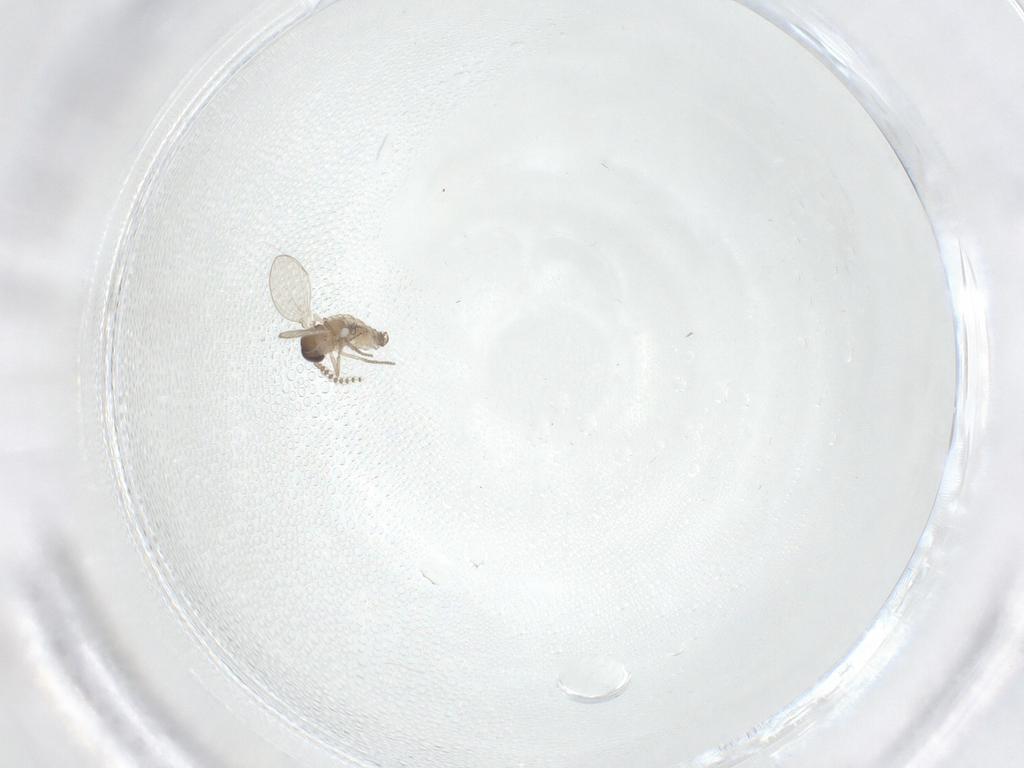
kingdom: Animalia
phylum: Arthropoda
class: Insecta
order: Diptera
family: Psychodidae
